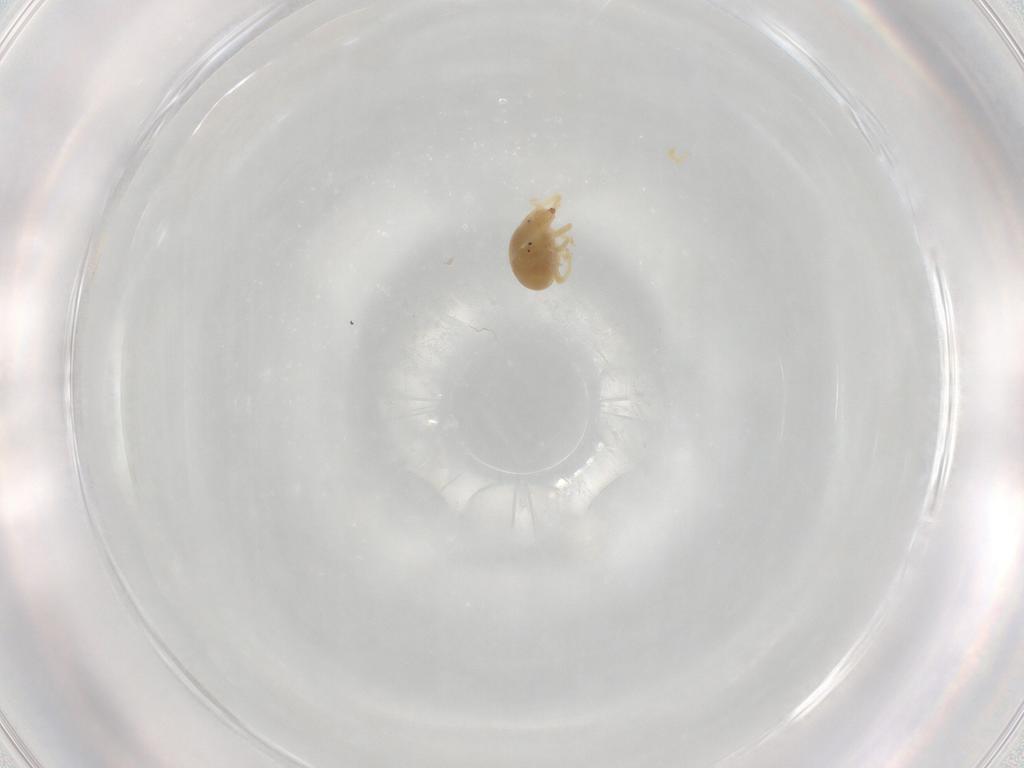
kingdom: Animalia
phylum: Arthropoda
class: Arachnida
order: Trombidiformes
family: Bdellidae
